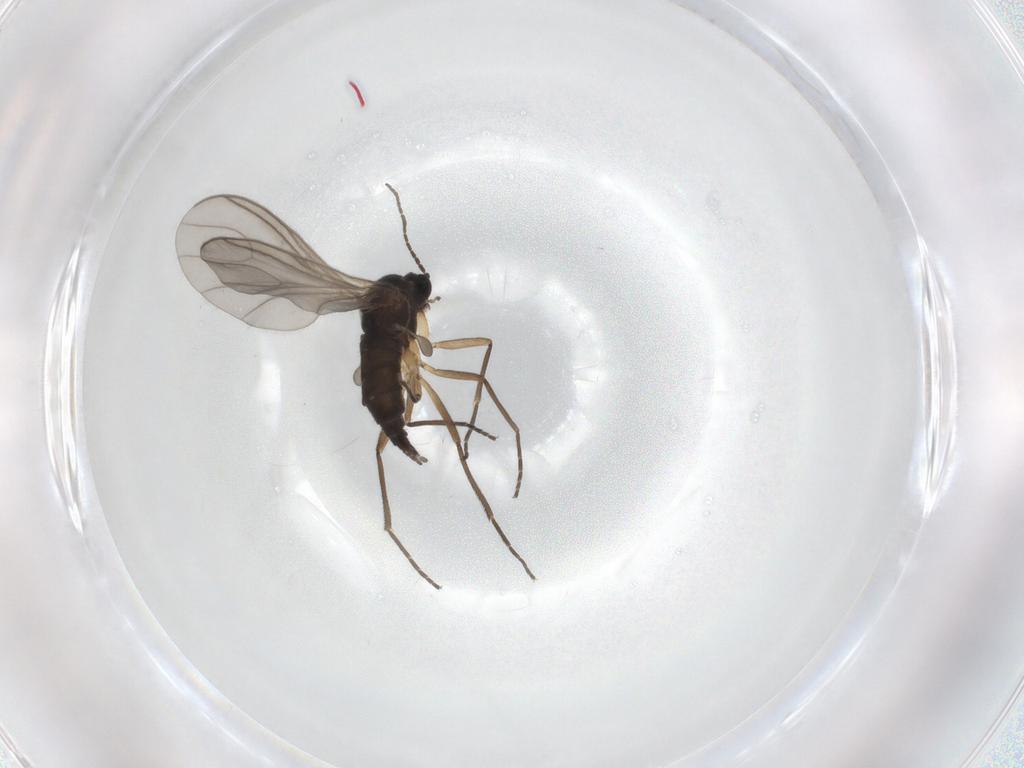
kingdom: Animalia
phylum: Arthropoda
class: Insecta
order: Diptera
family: Sciaridae
